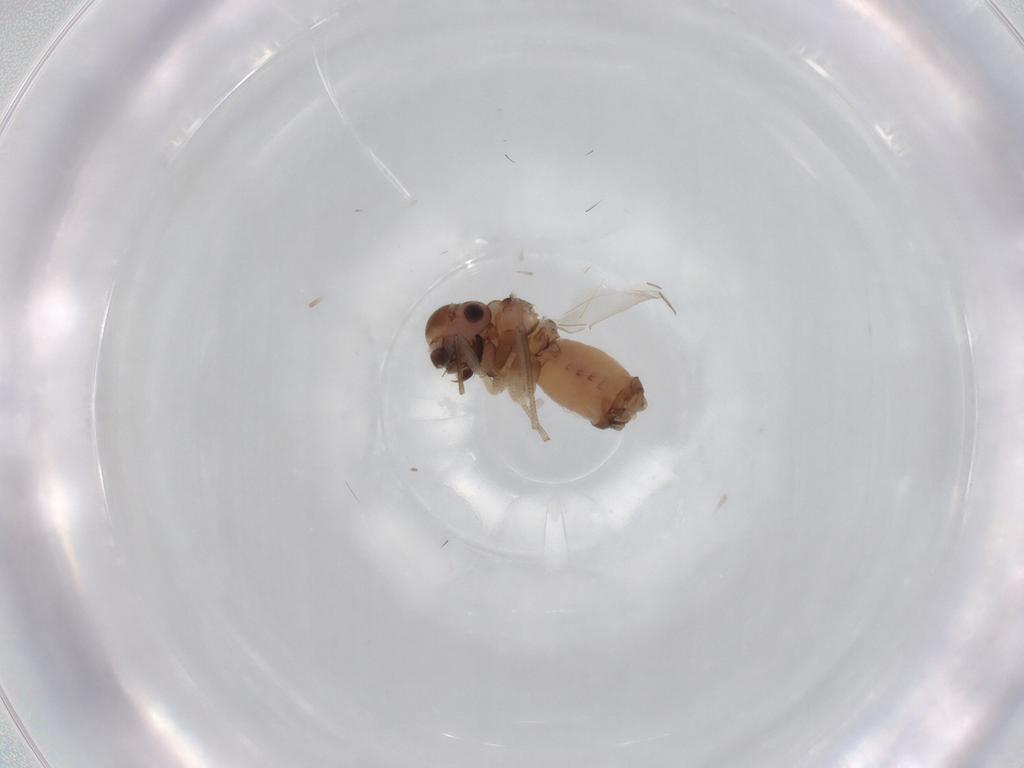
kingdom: Animalia
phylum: Arthropoda
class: Insecta
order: Psocodea
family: Peripsocidae
